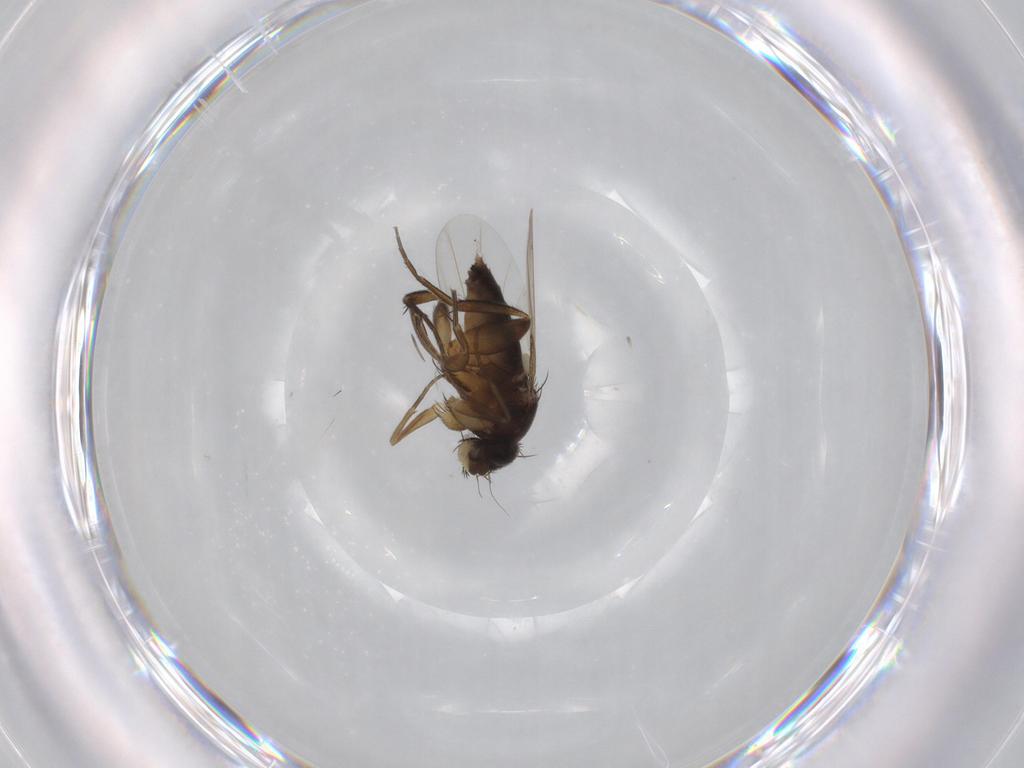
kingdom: Animalia
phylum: Arthropoda
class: Insecta
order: Diptera
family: Phoridae
